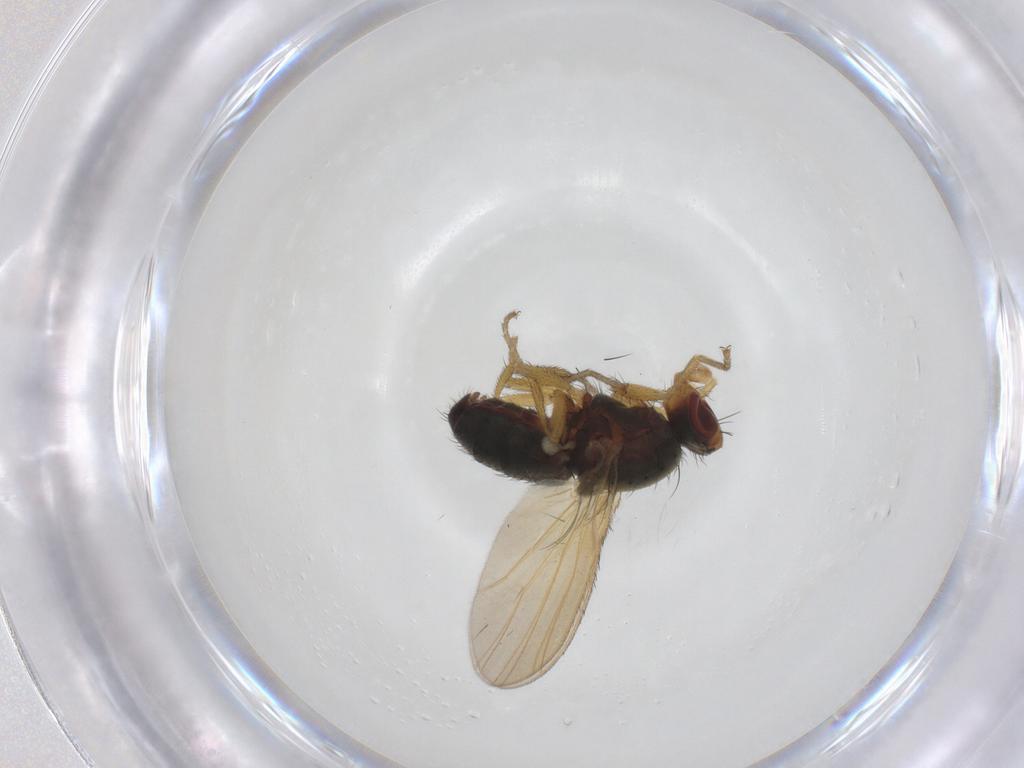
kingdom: Animalia
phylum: Arthropoda
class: Insecta
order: Diptera
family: Heleomyzidae
